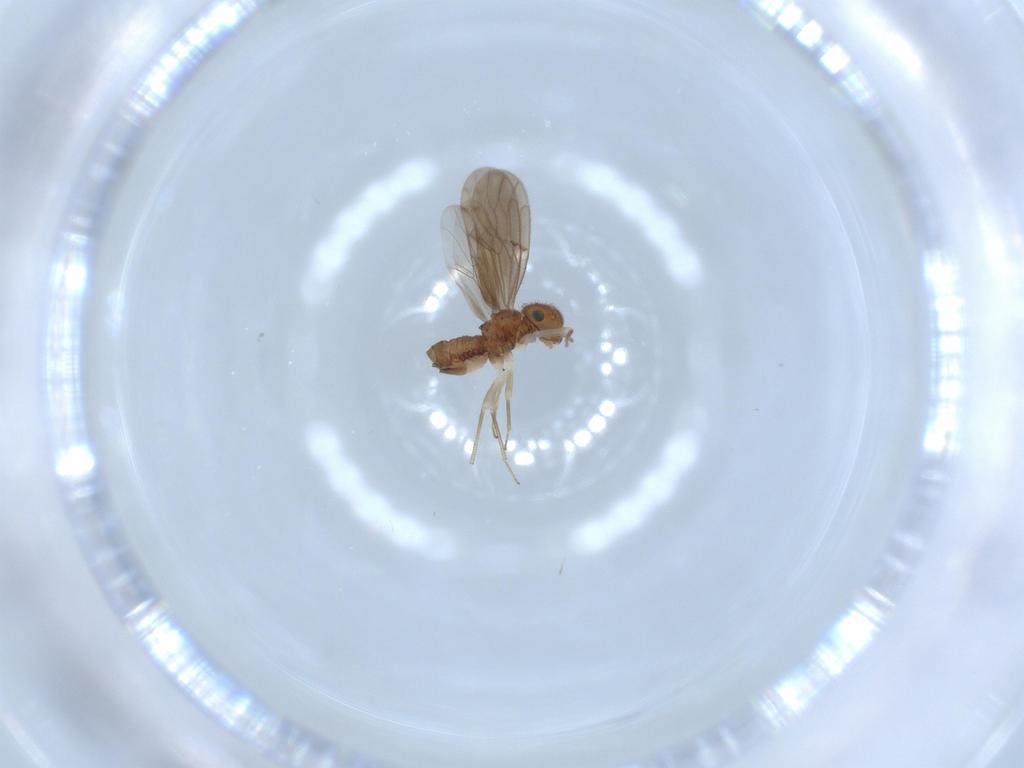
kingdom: Animalia
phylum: Arthropoda
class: Insecta
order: Psocodea
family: Ectopsocidae
